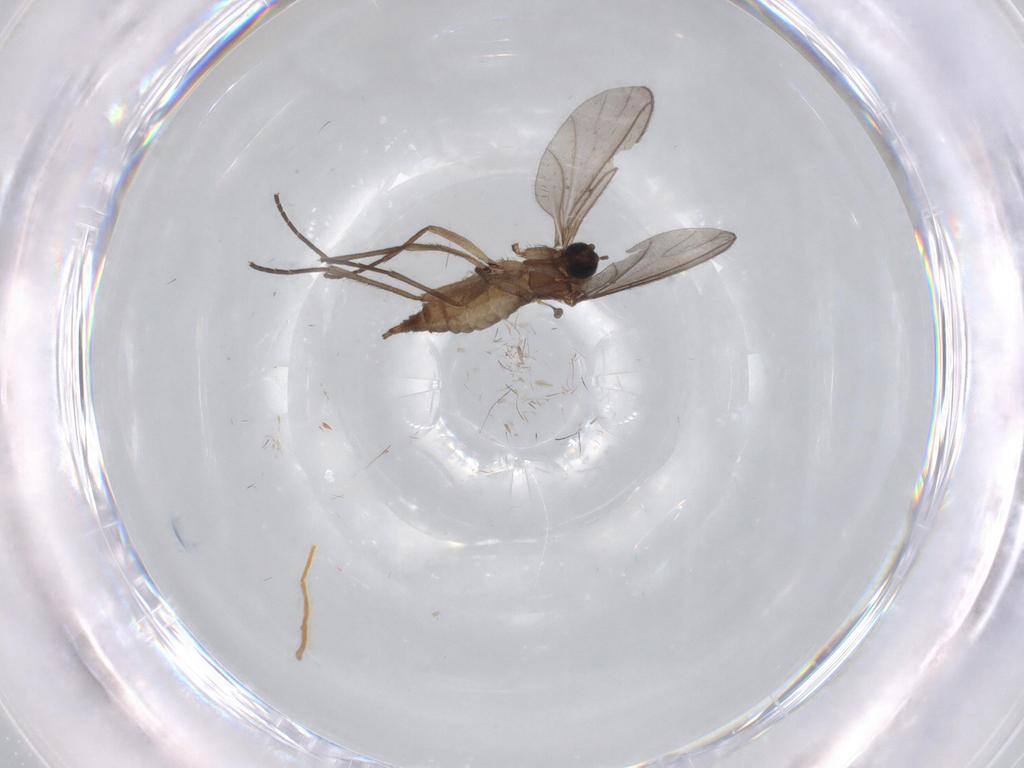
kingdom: Animalia
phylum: Arthropoda
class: Insecta
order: Diptera
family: Sciaridae
